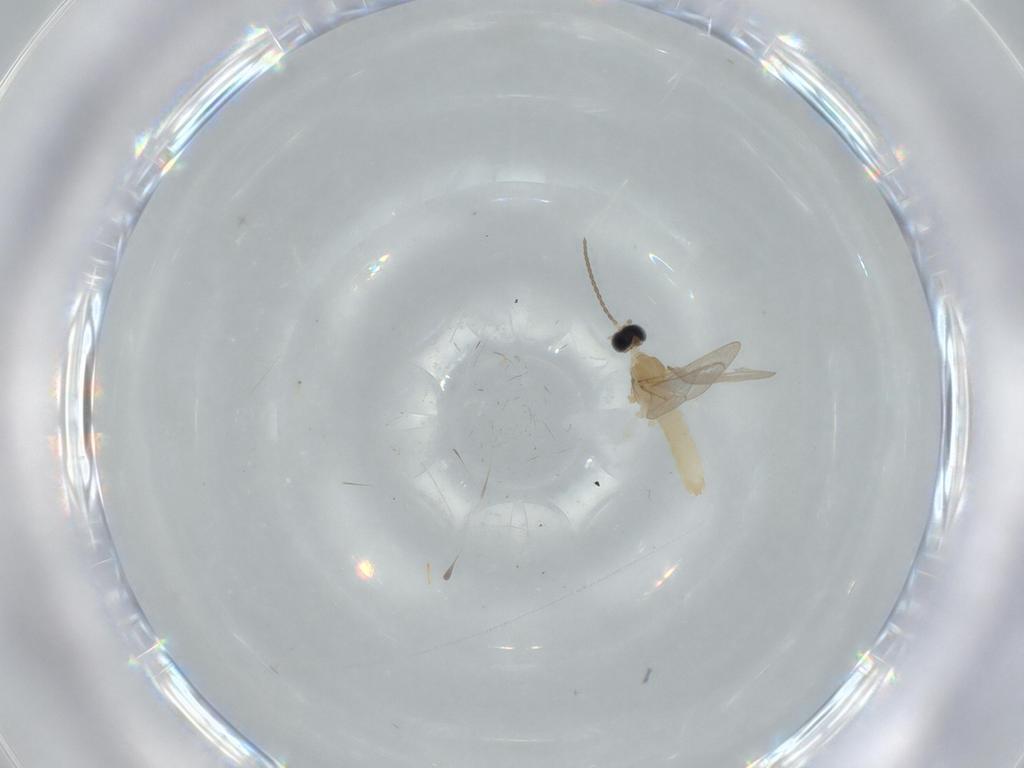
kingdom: Animalia
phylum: Arthropoda
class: Insecta
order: Diptera
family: Cecidomyiidae
